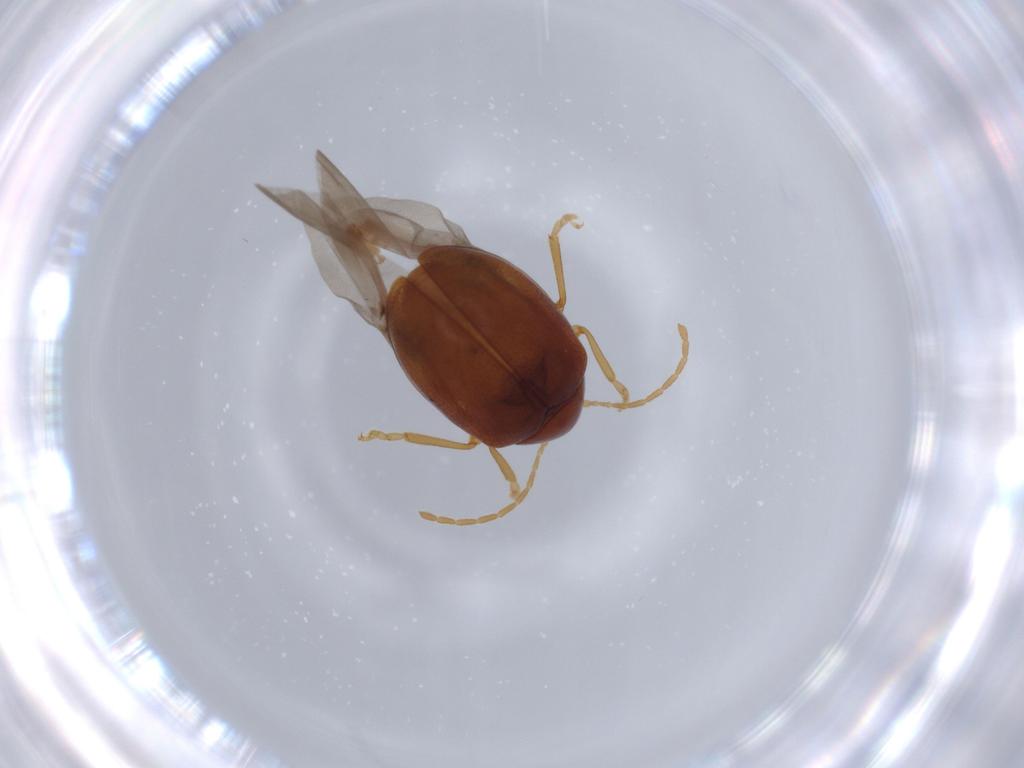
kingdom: Animalia
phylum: Arthropoda
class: Insecta
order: Coleoptera
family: Chrysomelidae
